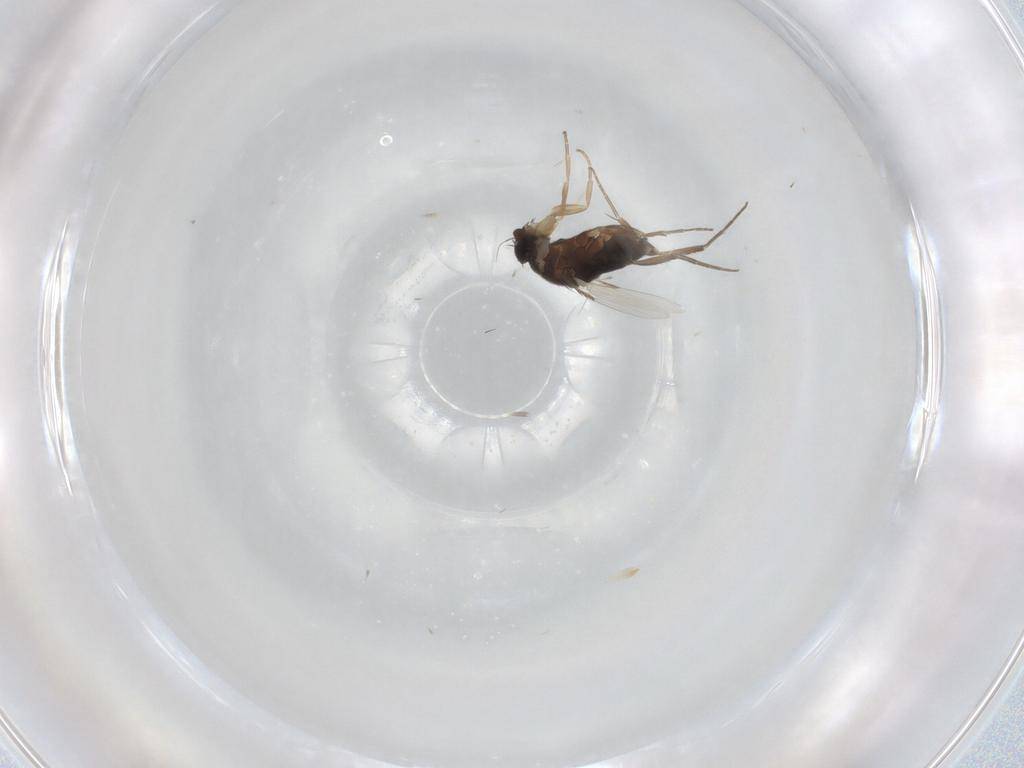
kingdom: Animalia
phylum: Arthropoda
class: Insecta
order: Diptera
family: Phoridae
